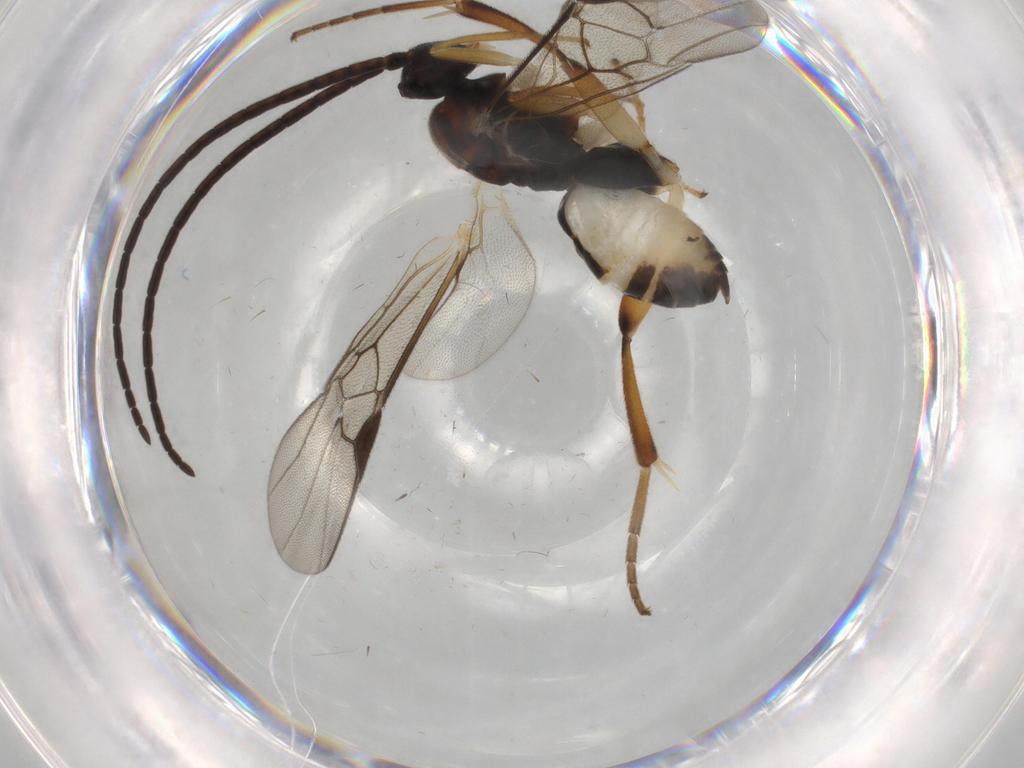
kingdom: Animalia
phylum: Arthropoda
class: Insecta
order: Hymenoptera
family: Braconidae
